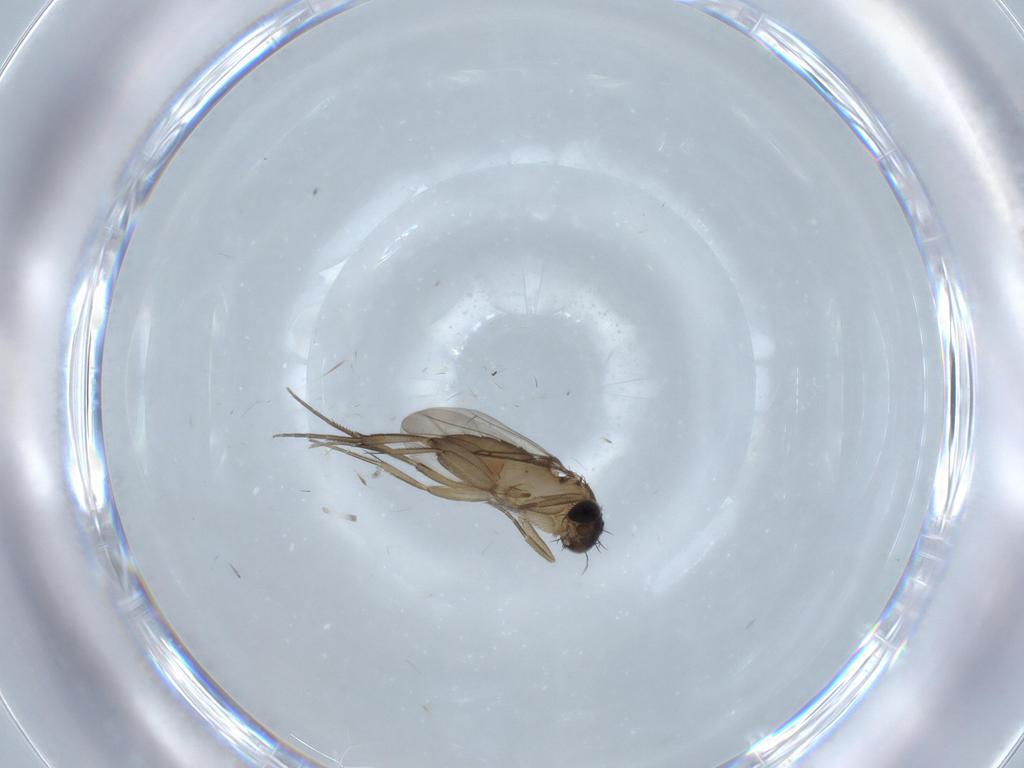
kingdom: Animalia
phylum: Arthropoda
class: Insecta
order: Diptera
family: Phoridae
